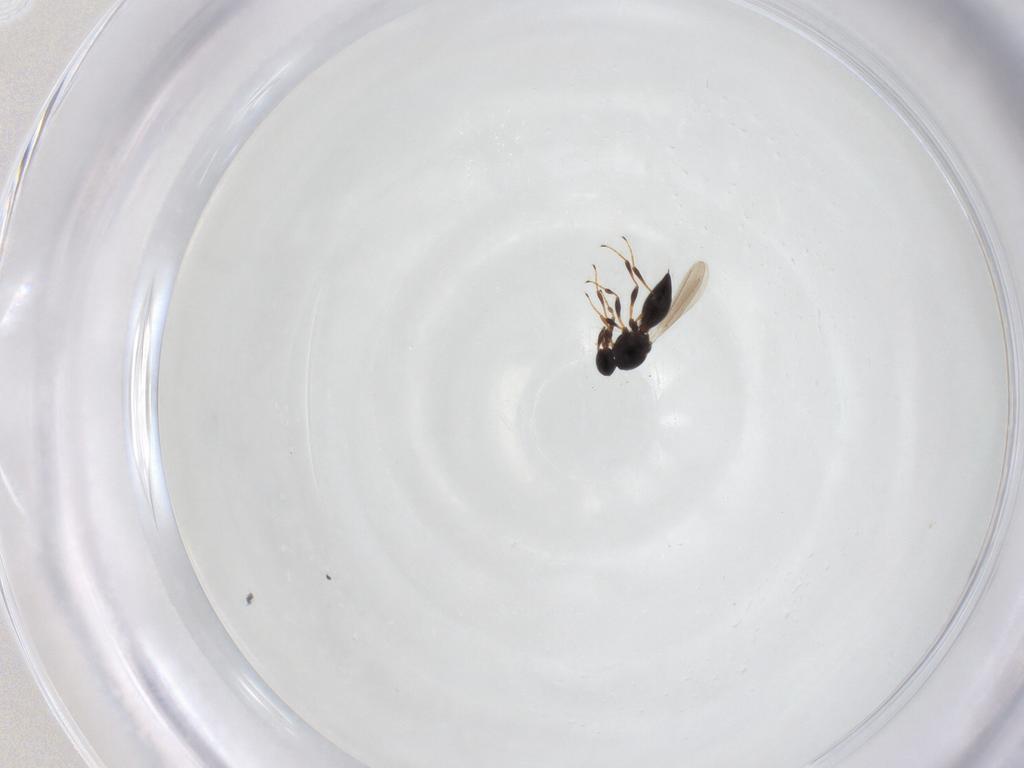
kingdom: Animalia
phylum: Arthropoda
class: Insecta
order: Hymenoptera
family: Platygastridae
